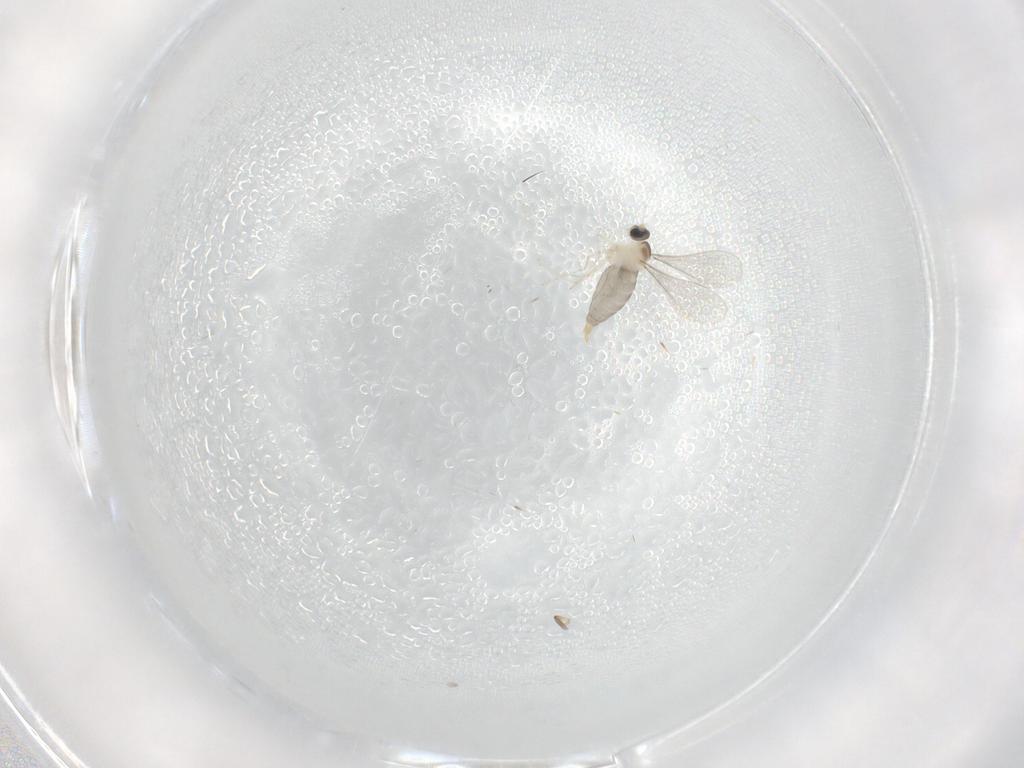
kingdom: Animalia
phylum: Arthropoda
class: Insecta
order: Diptera
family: Cecidomyiidae
